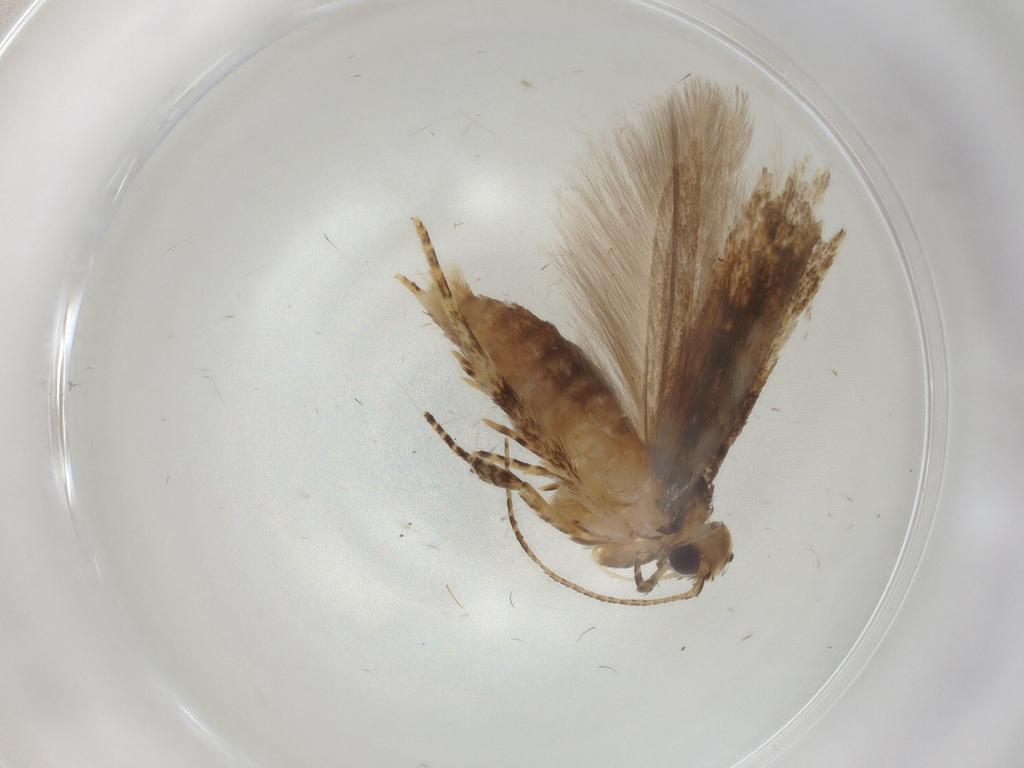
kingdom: Animalia
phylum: Arthropoda
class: Insecta
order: Lepidoptera
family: Gelechiidae
